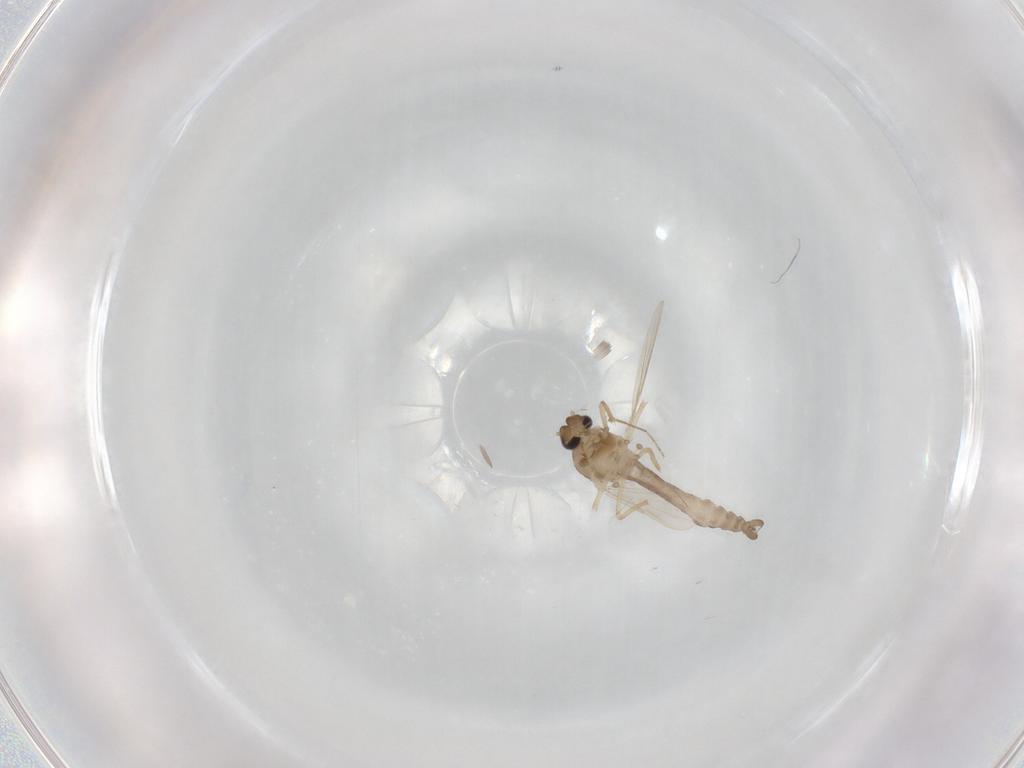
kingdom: Animalia
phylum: Arthropoda
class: Insecta
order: Diptera
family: Ceratopogonidae
